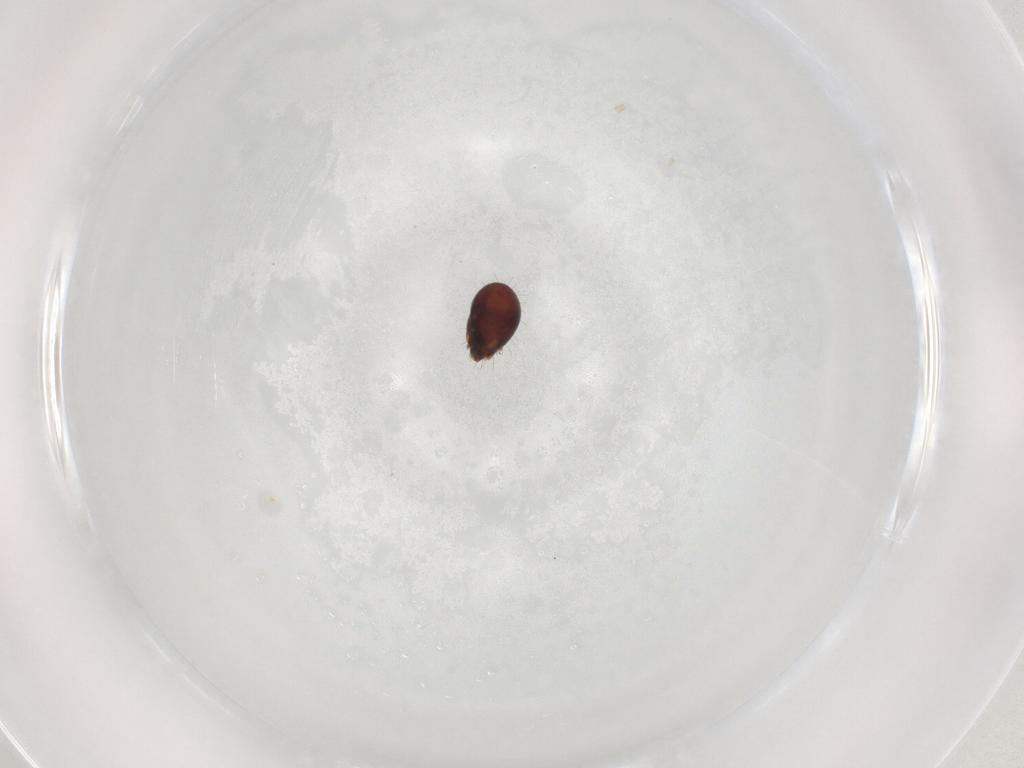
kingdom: Animalia
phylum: Arthropoda
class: Arachnida
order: Sarcoptiformes
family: Humerobatidae
